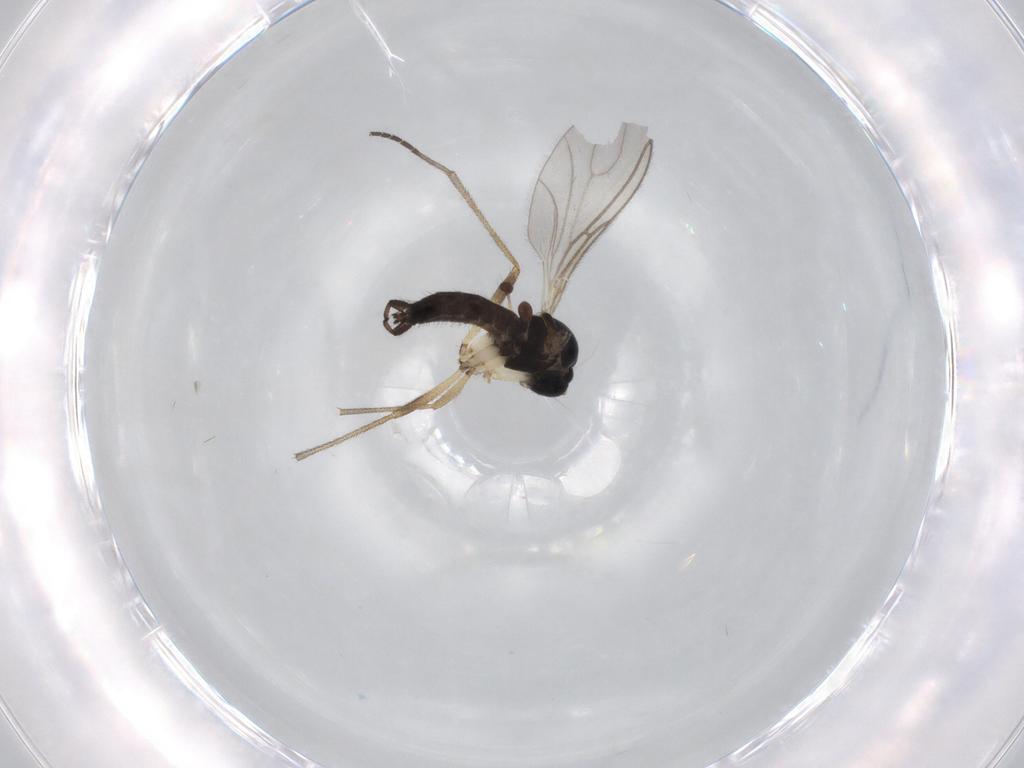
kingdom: Animalia
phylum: Arthropoda
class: Insecta
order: Diptera
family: Sciaridae
